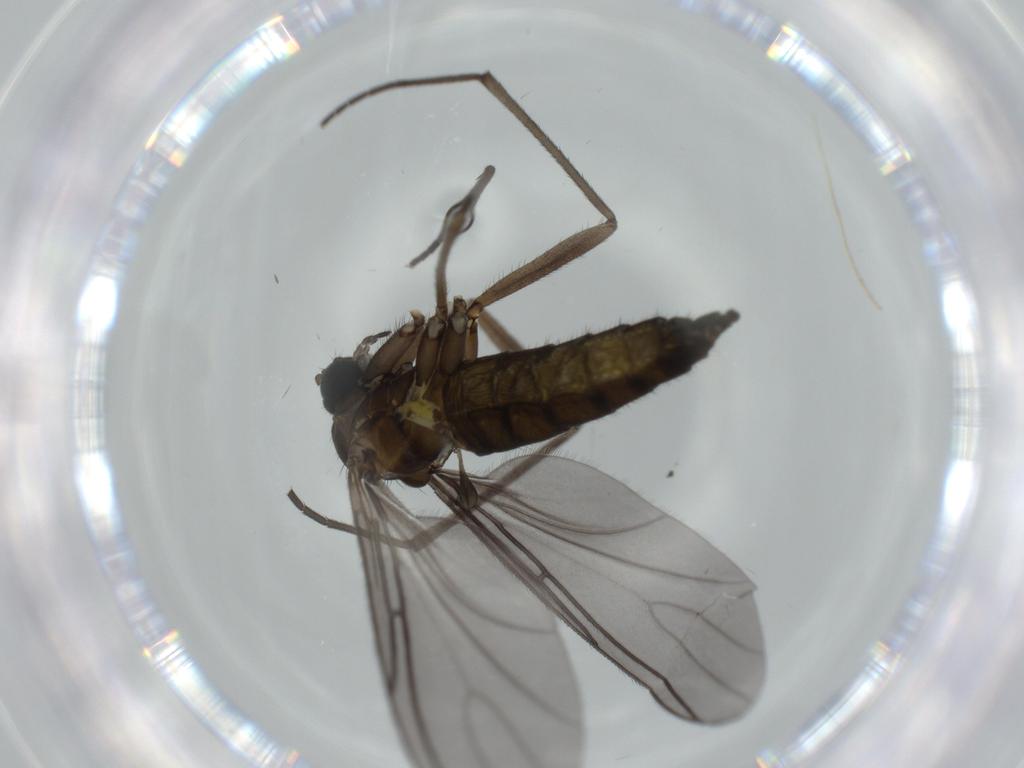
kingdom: Animalia
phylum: Arthropoda
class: Insecta
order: Diptera
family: Sciaridae
